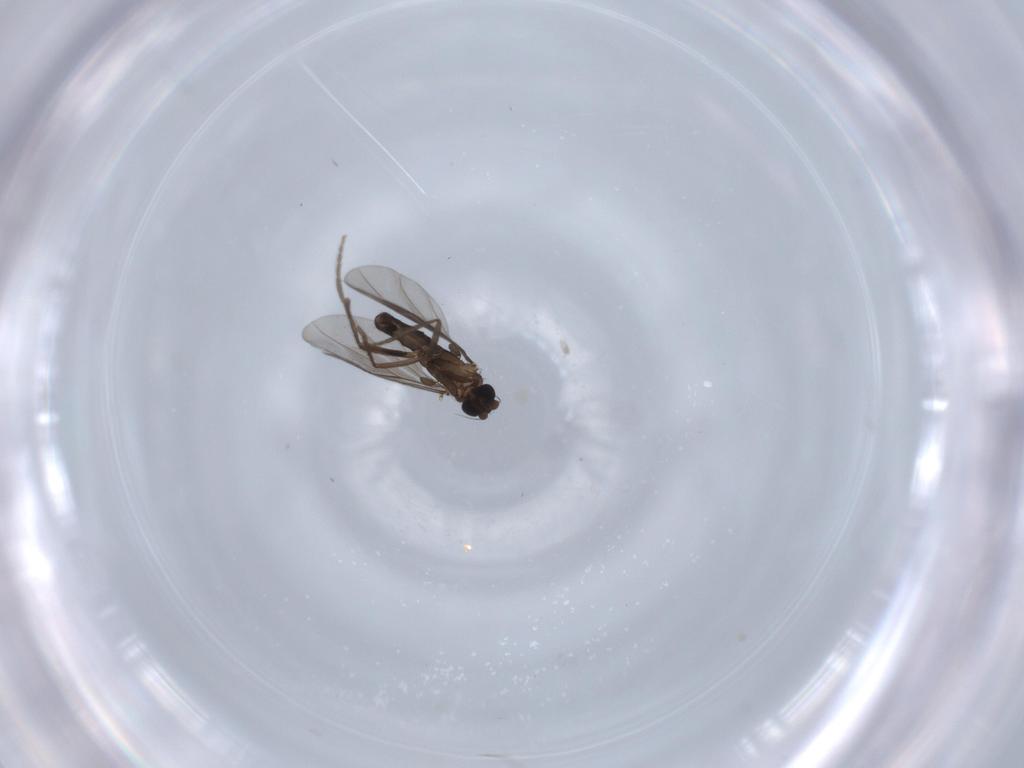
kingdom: Animalia
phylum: Arthropoda
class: Insecta
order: Diptera
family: Phoridae
